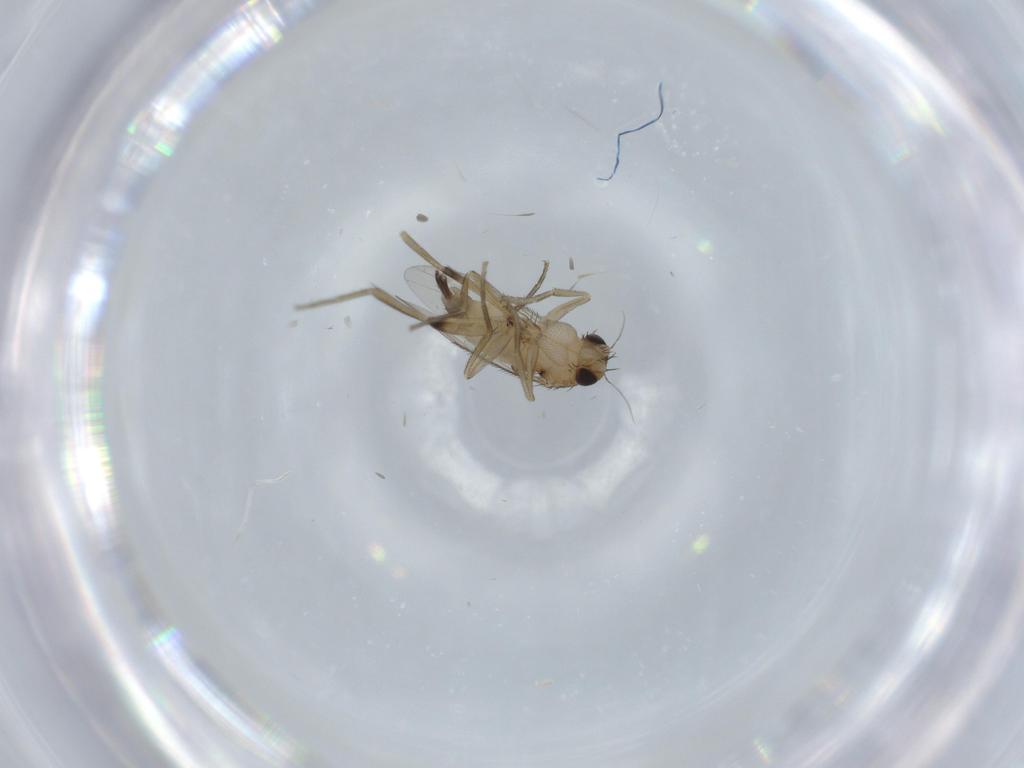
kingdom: Animalia
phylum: Arthropoda
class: Insecta
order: Diptera
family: Phoridae
